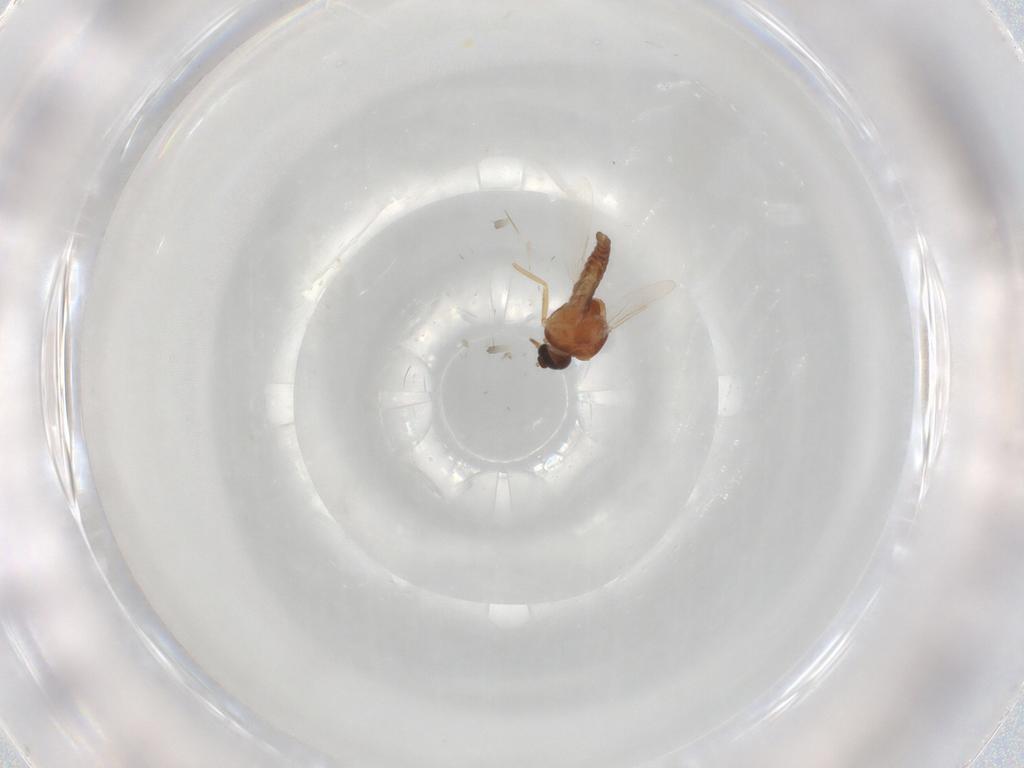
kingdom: Animalia
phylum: Arthropoda
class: Insecta
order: Diptera
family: Ceratopogonidae
